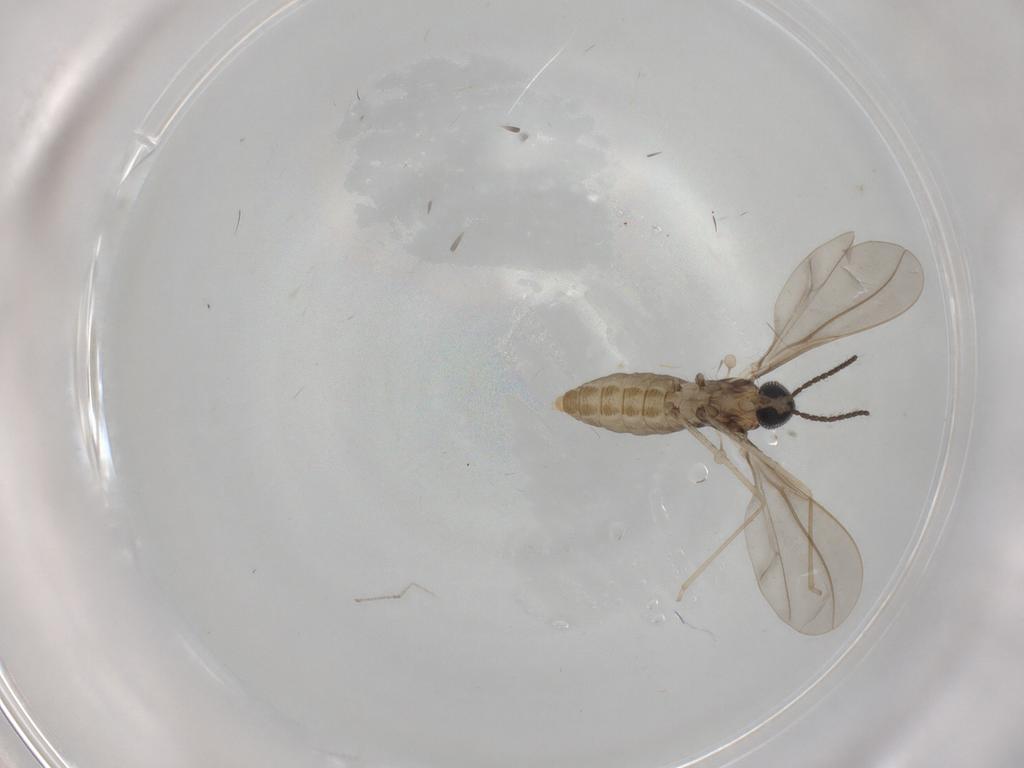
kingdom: Animalia
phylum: Arthropoda
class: Insecta
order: Diptera
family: Cecidomyiidae
